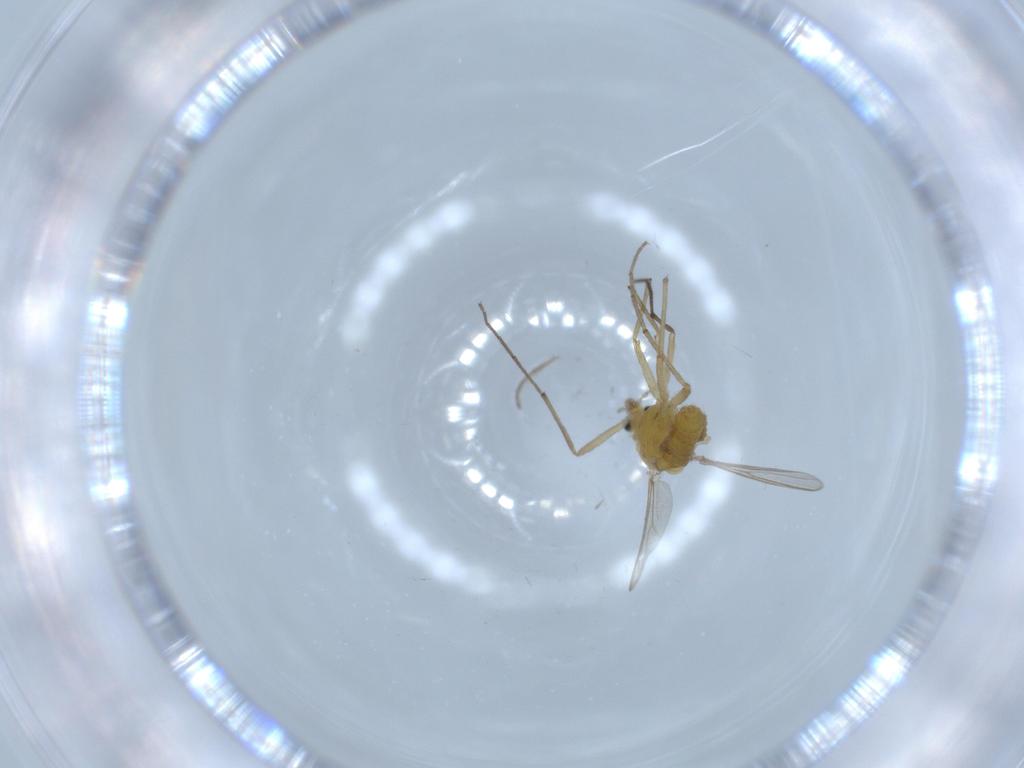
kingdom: Animalia
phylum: Arthropoda
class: Insecta
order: Diptera
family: Chironomidae
